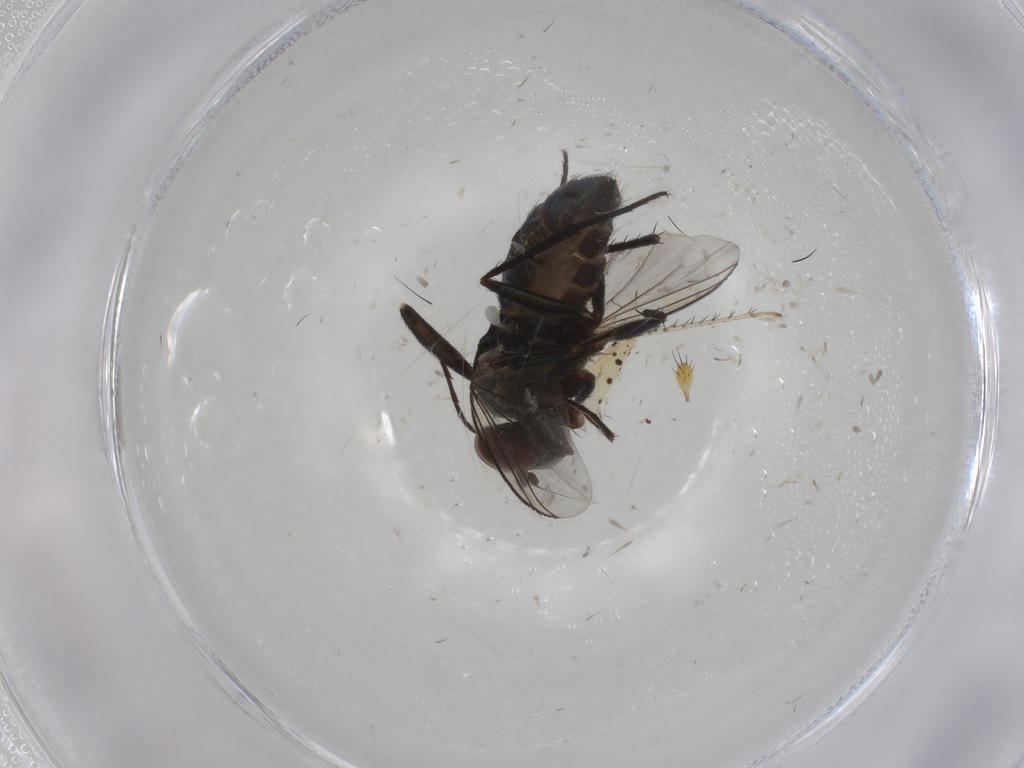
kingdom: Animalia
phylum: Arthropoda
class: Insecta
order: Diptera
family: Dolichopodidae
